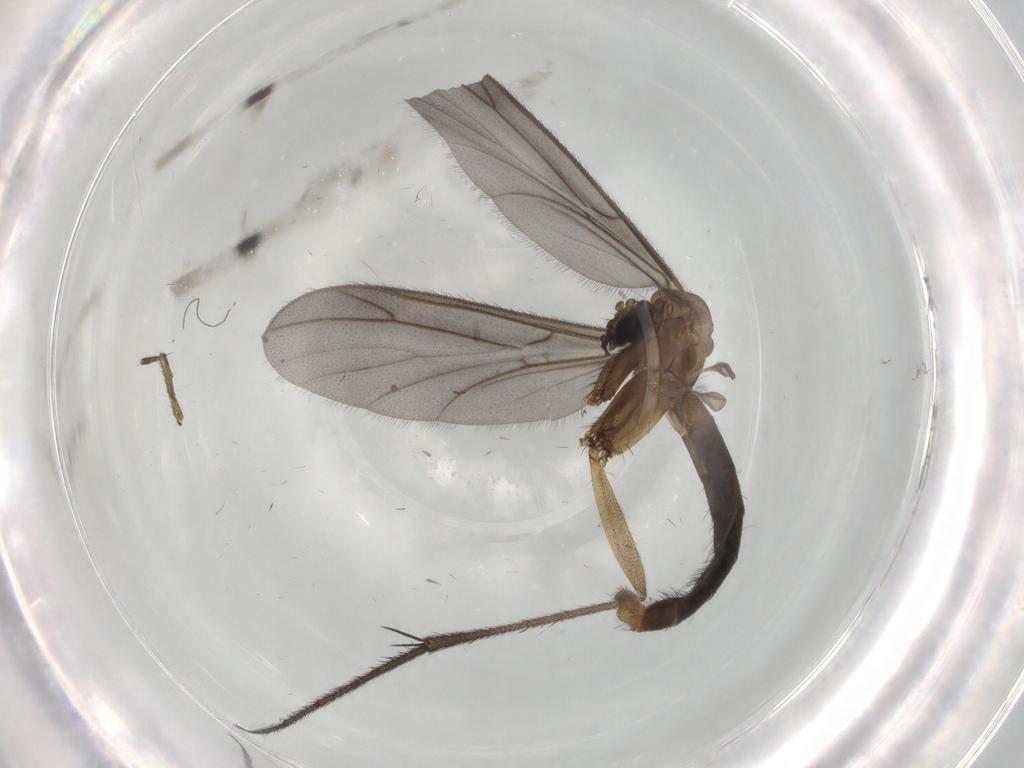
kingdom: Animalia
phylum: Arthropoda
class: Insecta
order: Diptera
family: Ditomyiidae
